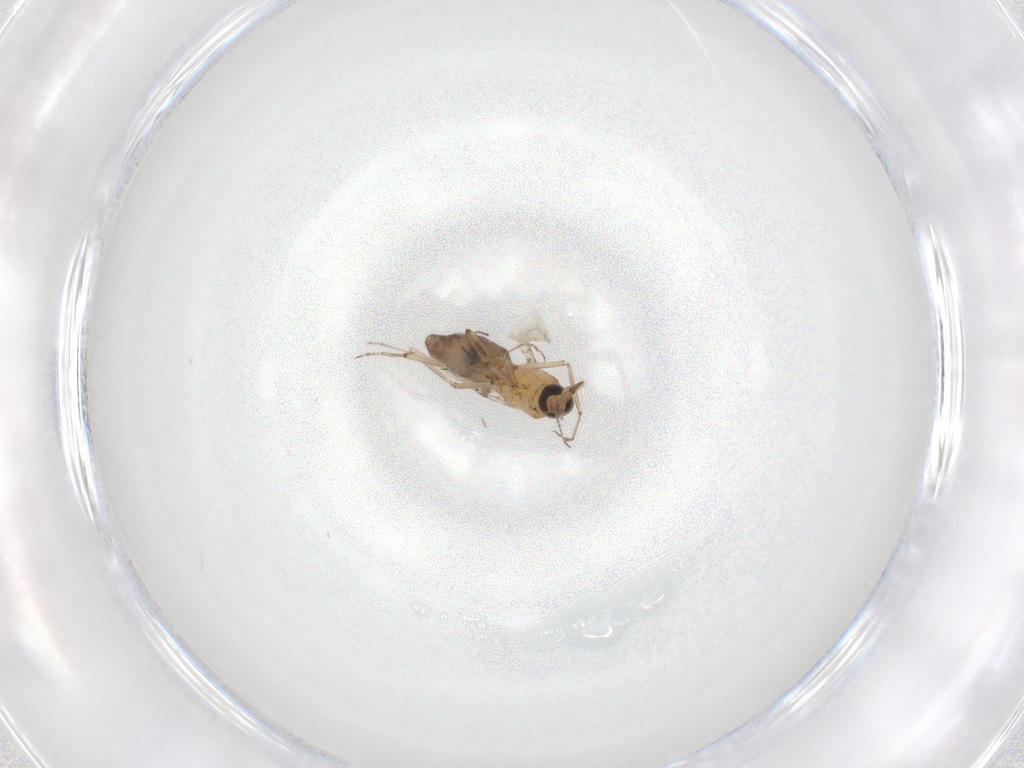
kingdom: Animalia
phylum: Arthropoda
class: Insecta
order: Diptera
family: Ceratopogonidae
